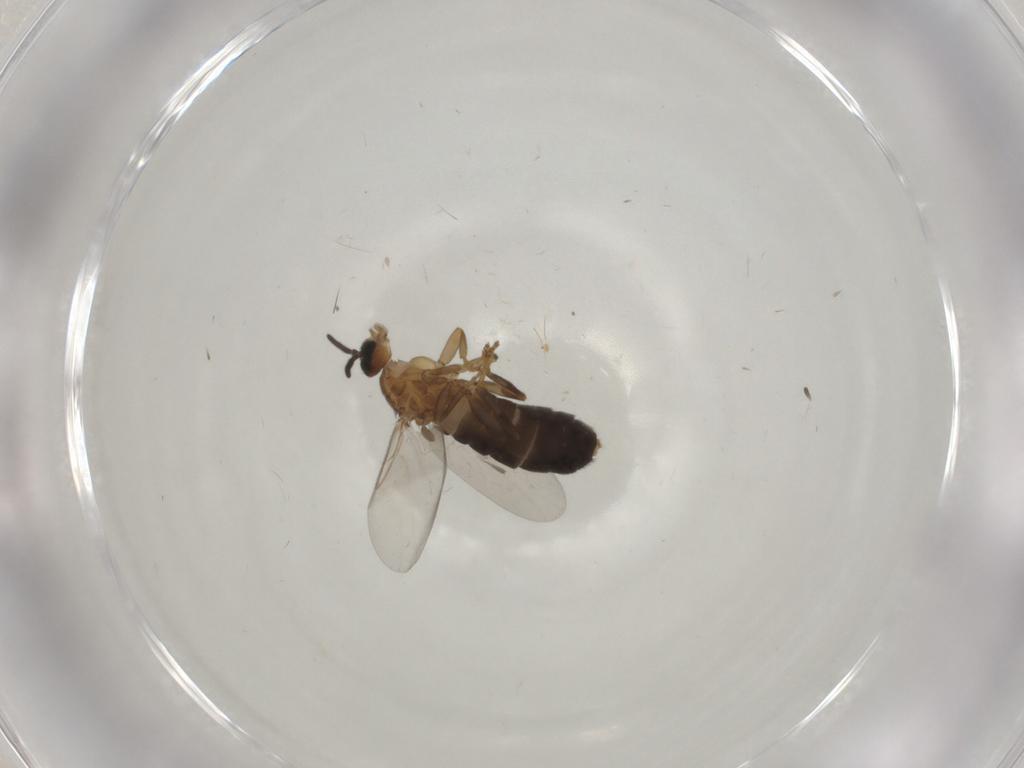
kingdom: Animalia
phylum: Arthropoda
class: Insecta
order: Diptera
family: Scatopsidae
